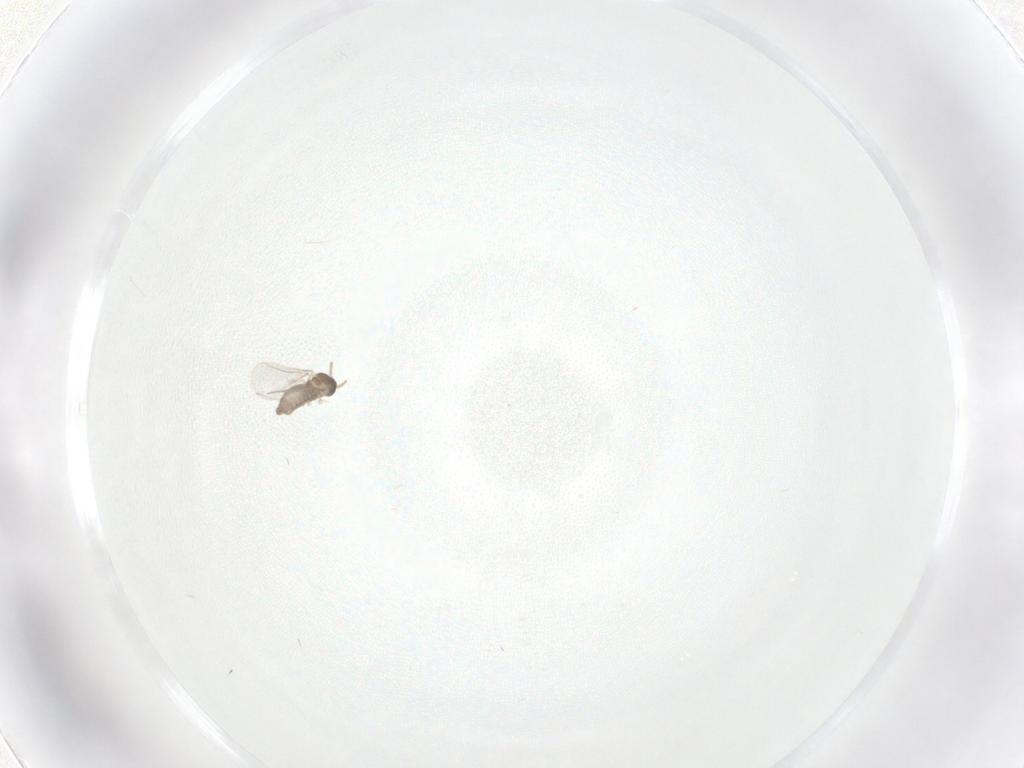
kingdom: Animalia
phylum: Arthropoda
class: Insecta
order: Diptera
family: Cecidomyiidae
